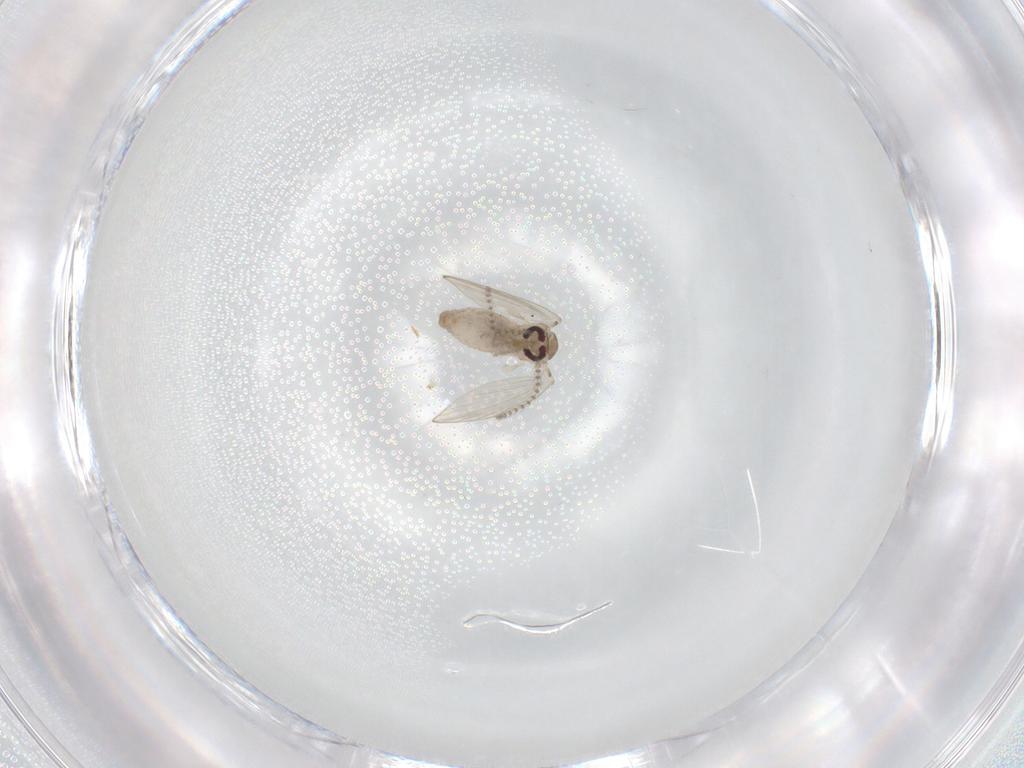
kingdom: Animalia
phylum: Arthropoda
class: Insecta
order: Diptera
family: Psychodidae
